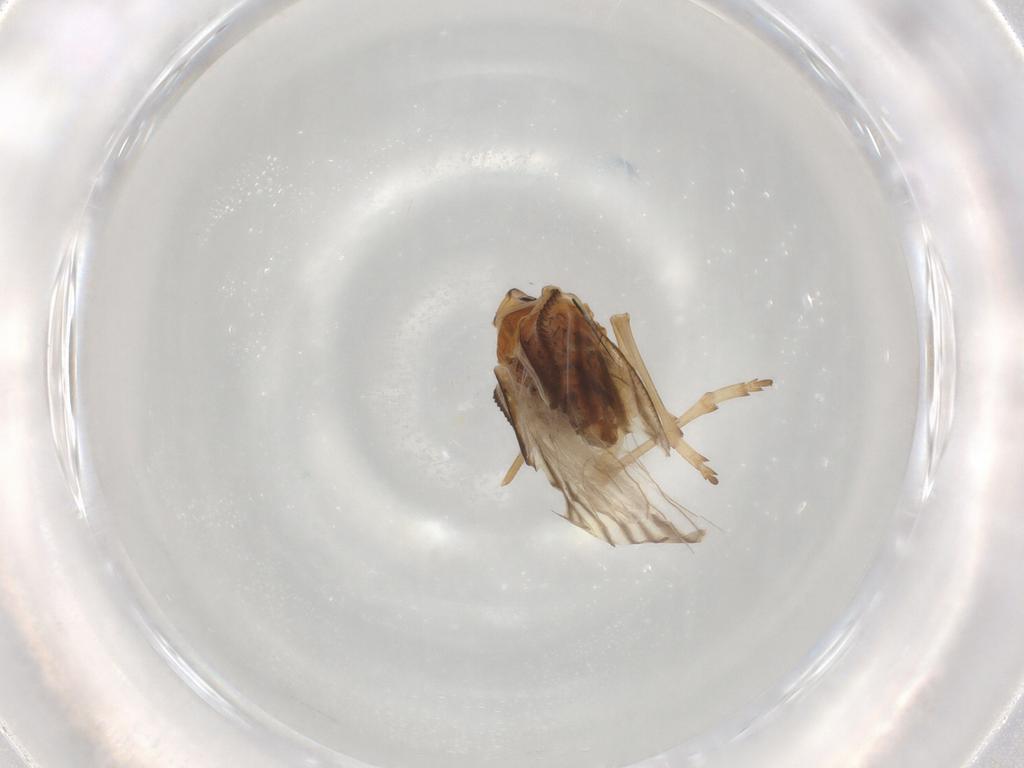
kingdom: Animalia
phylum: Arthropoda
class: Insecta
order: Hemiptera
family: Meenoplidae
